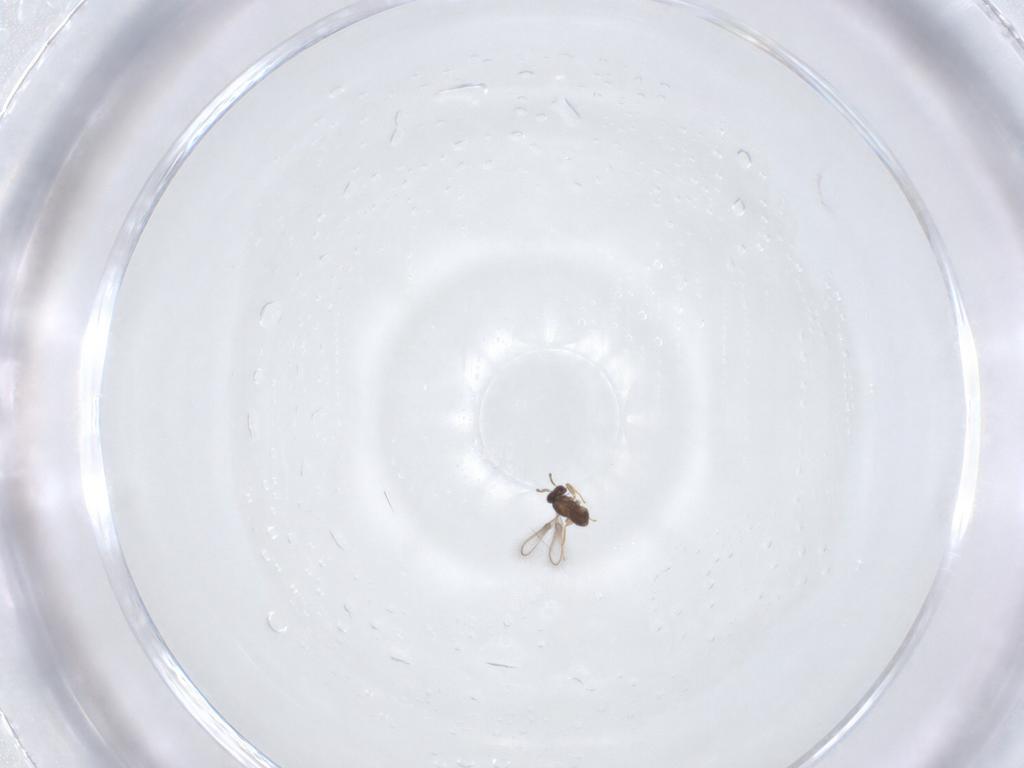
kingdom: Animalia
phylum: Arthropoda
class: Insecta
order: Hymenoptera
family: Mymaridae
